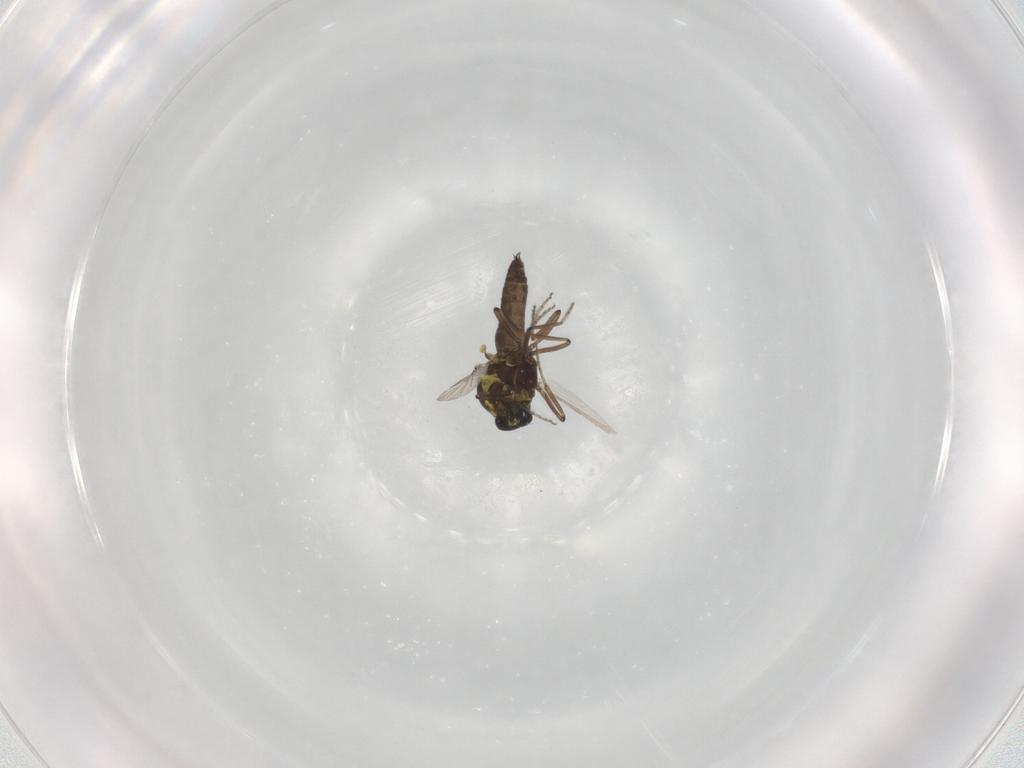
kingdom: Animalia
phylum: Arthropoda
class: Insecta
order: Diptera
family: Ceratopogonidae
